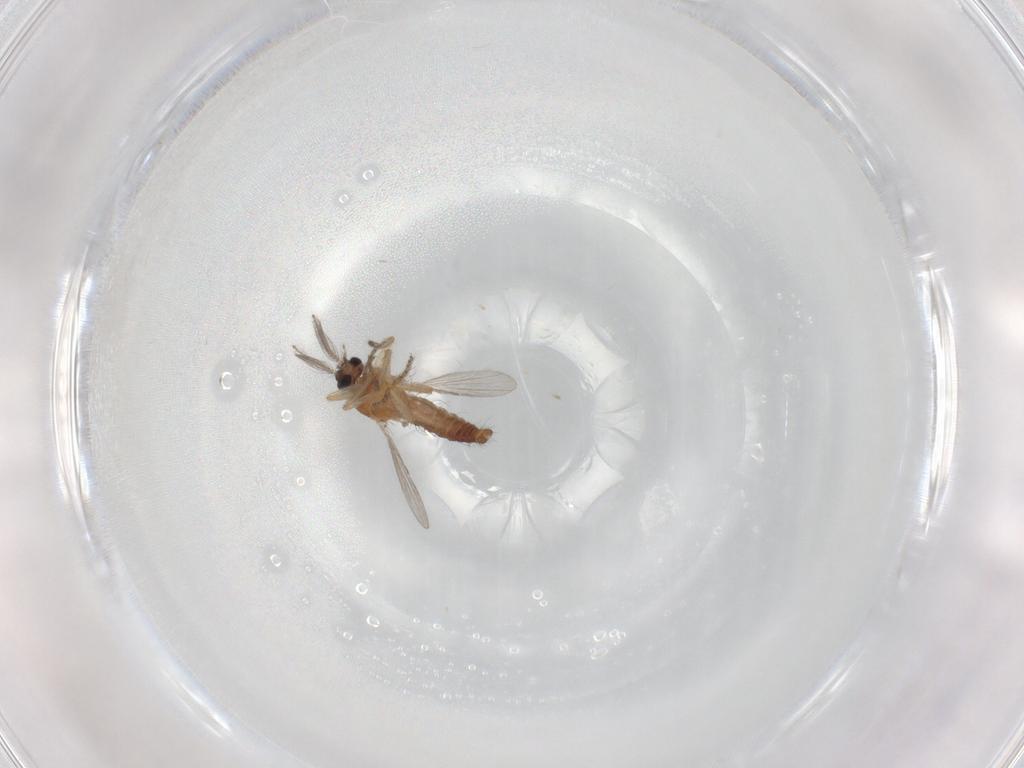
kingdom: Animalia
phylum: Arthropoda
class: Insecta
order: Diptera
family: Ceratopogonidae
